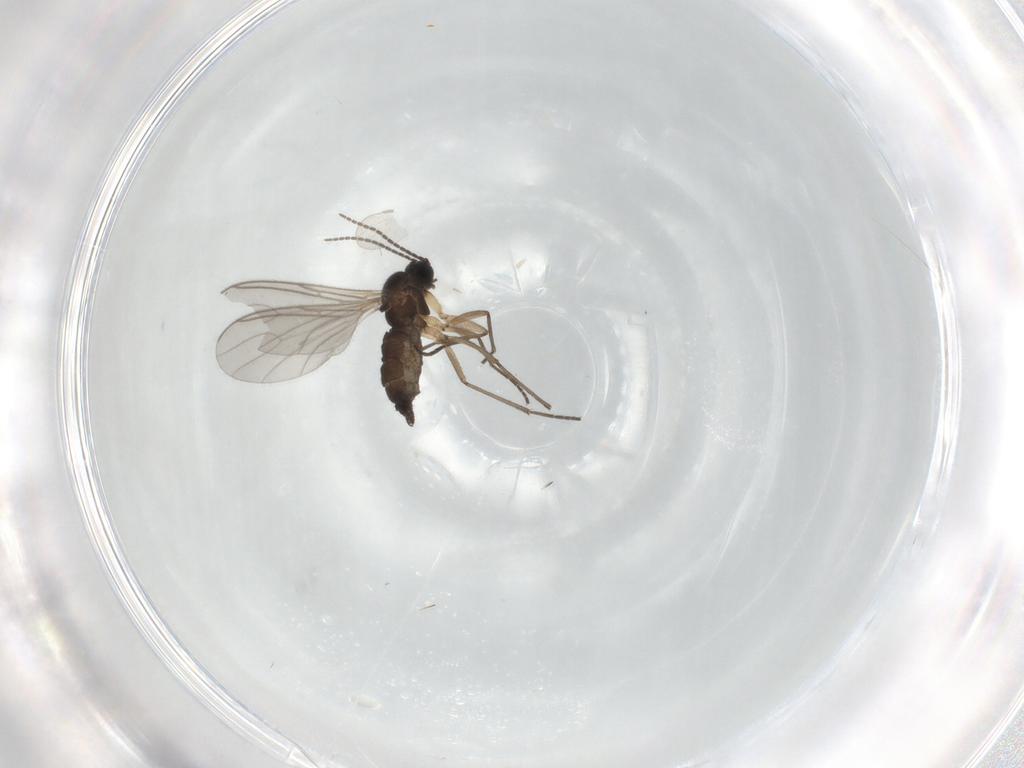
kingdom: Animalia
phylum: Arthropoda
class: Insecta
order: Diptera
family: Sciaridae
